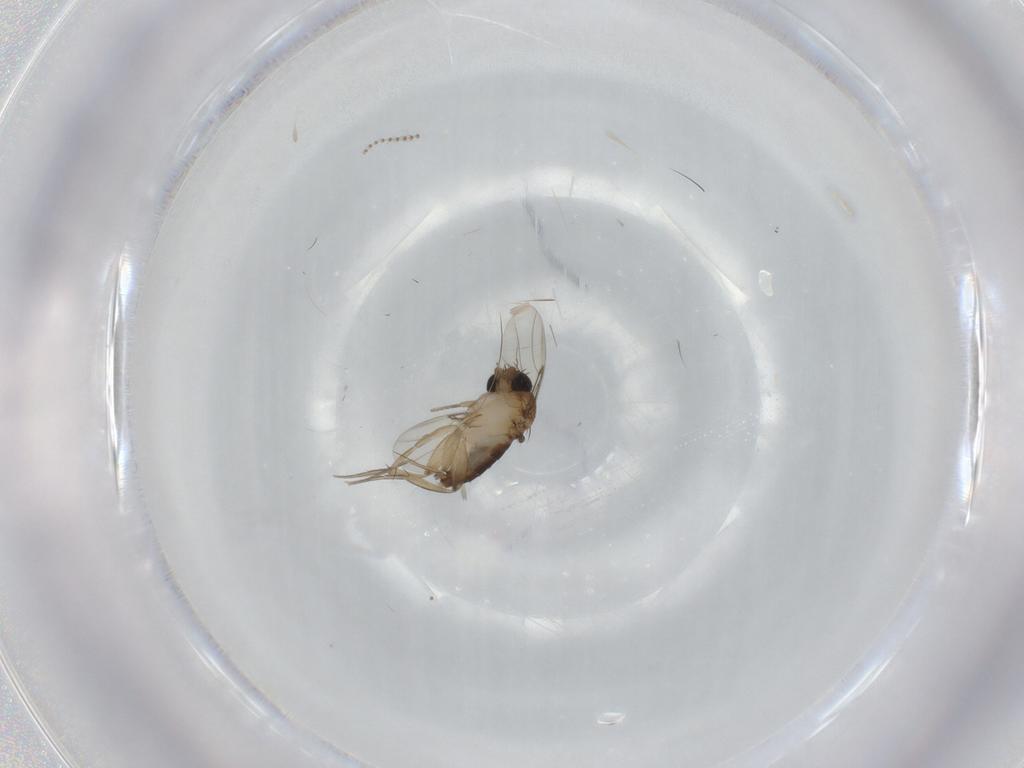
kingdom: Animalia
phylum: Arthropoda
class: Insecta
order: Diptera
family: Phoridae
